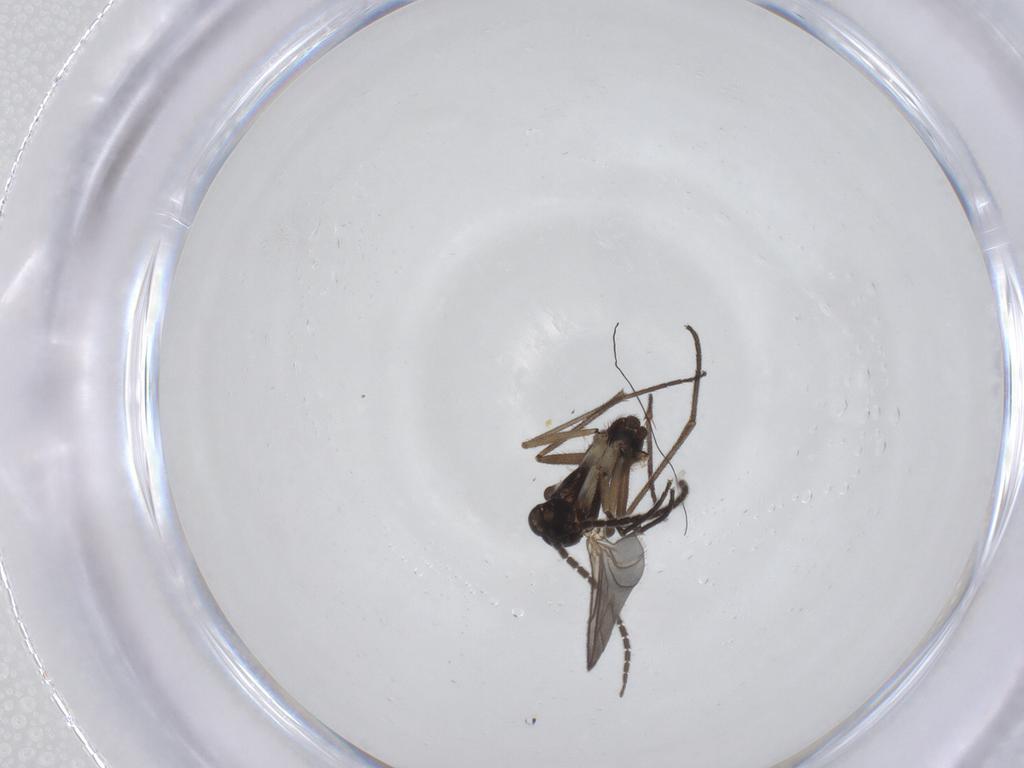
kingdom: Animalia
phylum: Arthropoda
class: Insecta
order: Diptera
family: Sciaridae
